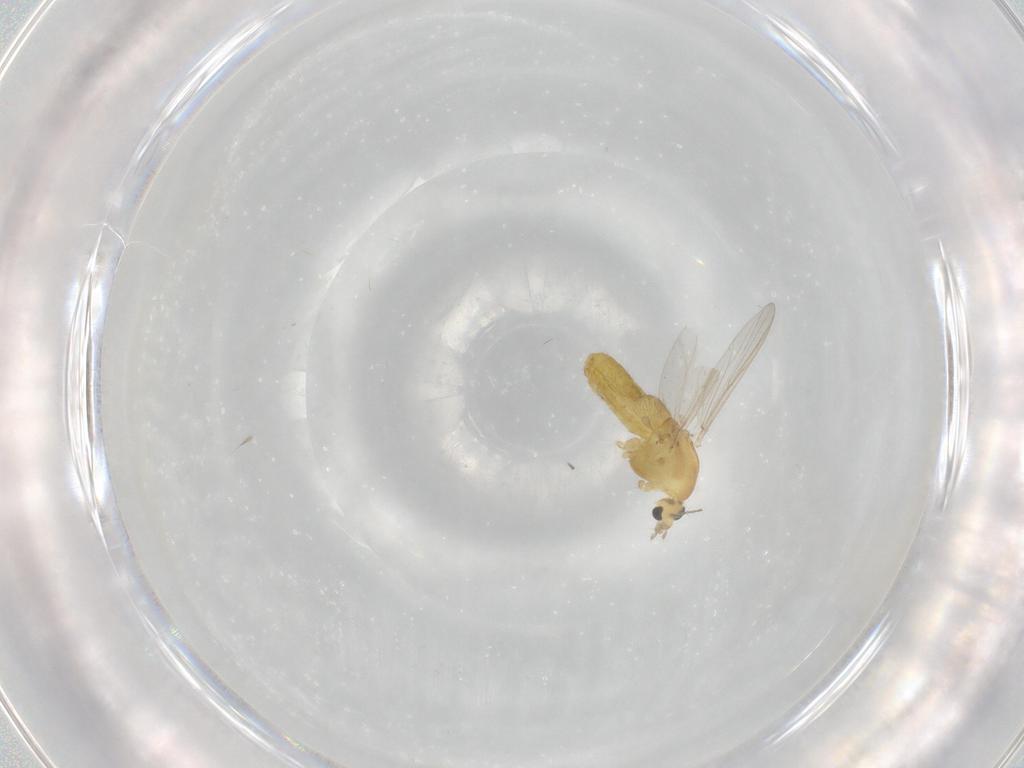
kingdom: Animalia
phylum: Arthropoda
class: Insecta
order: Diptera
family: Chironomidae
